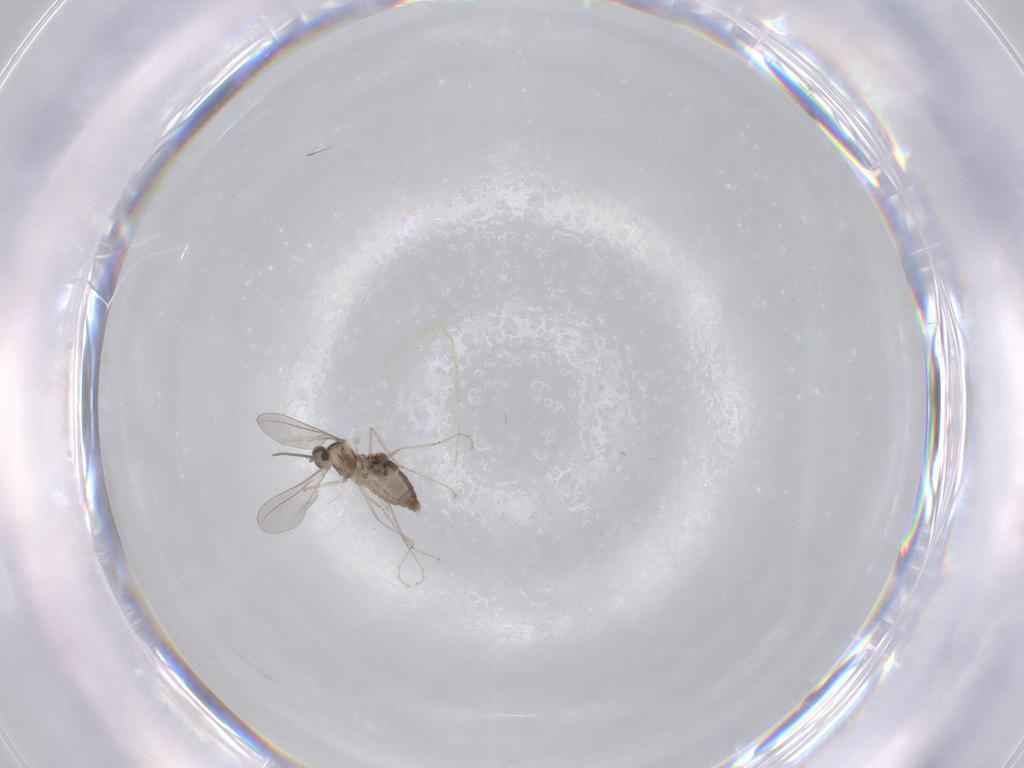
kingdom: Animalia
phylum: Arthropoda
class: Insecta
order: Diptera
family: Psychodidae
